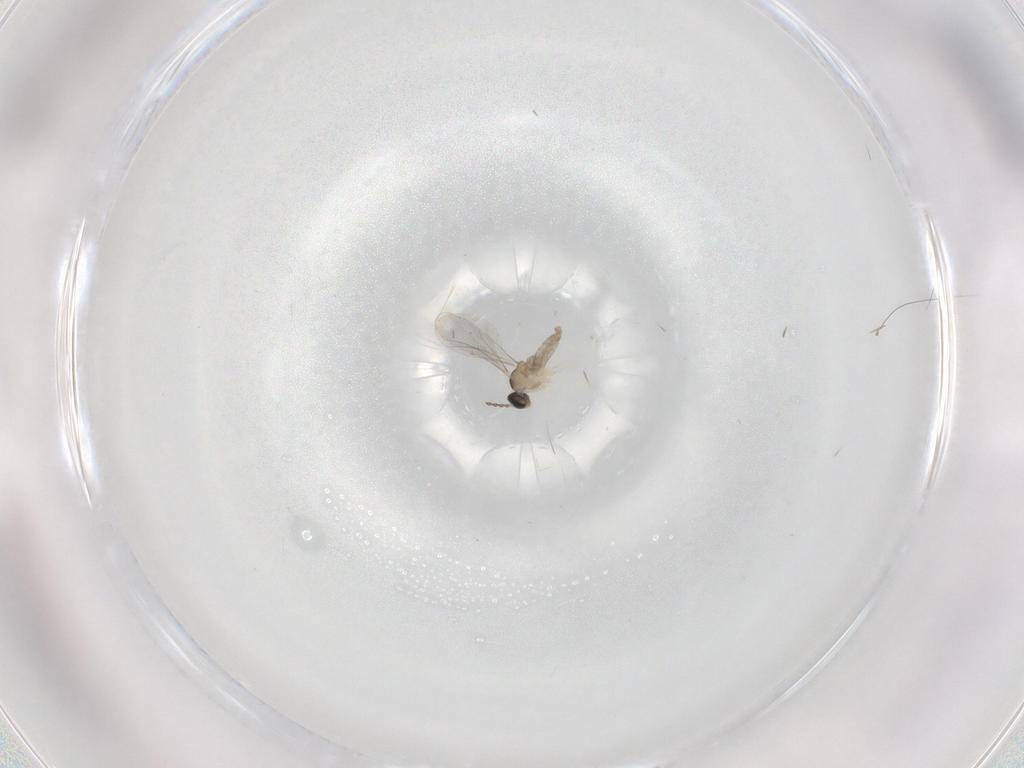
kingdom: Animalia
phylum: Arthropoda
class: Insecta
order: Diptera
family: Cecidomyiidae
